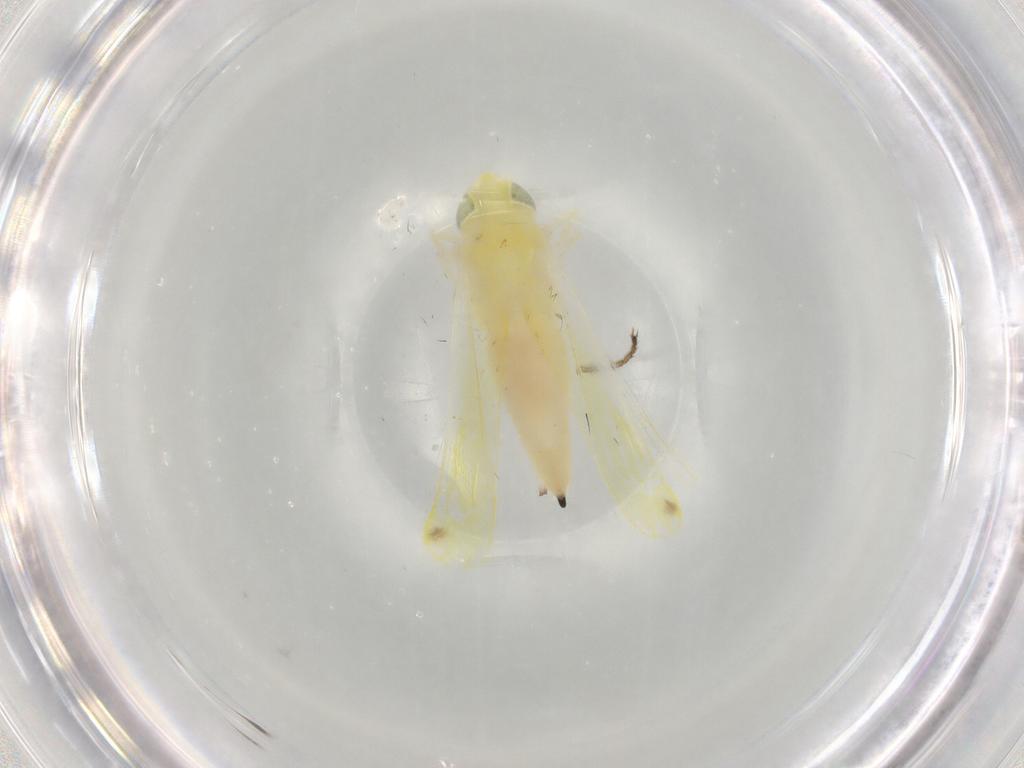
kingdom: Animalia
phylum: Arthropoda
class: Insecta
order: Hemiptera
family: Cicadellidae
